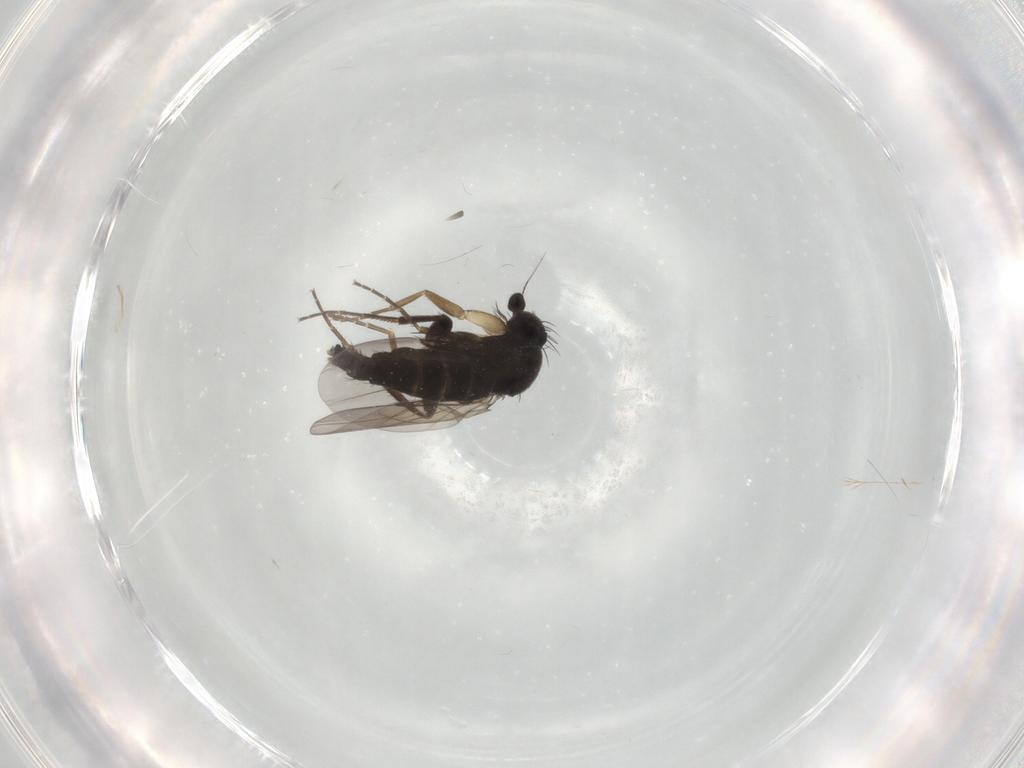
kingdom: Animalia
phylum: Arthropoda
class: Insecta
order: Diptera
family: Phoridae
